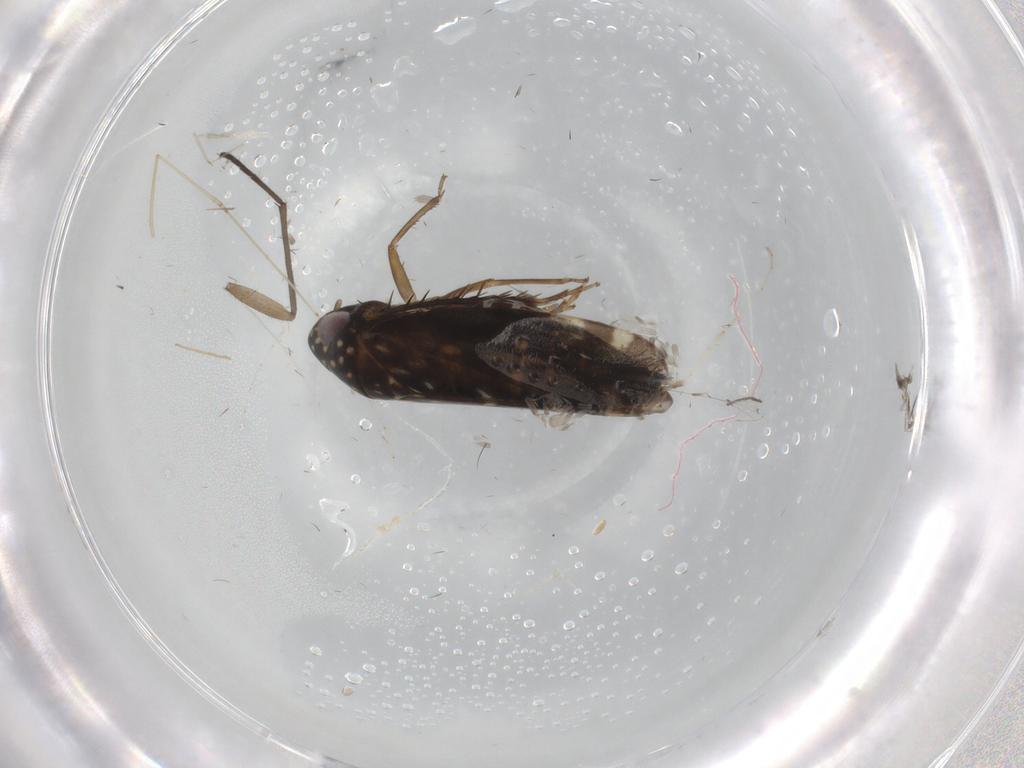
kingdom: Animalia
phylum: Arthropoda
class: Insecta
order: Hemiptera
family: Cicadellidae
